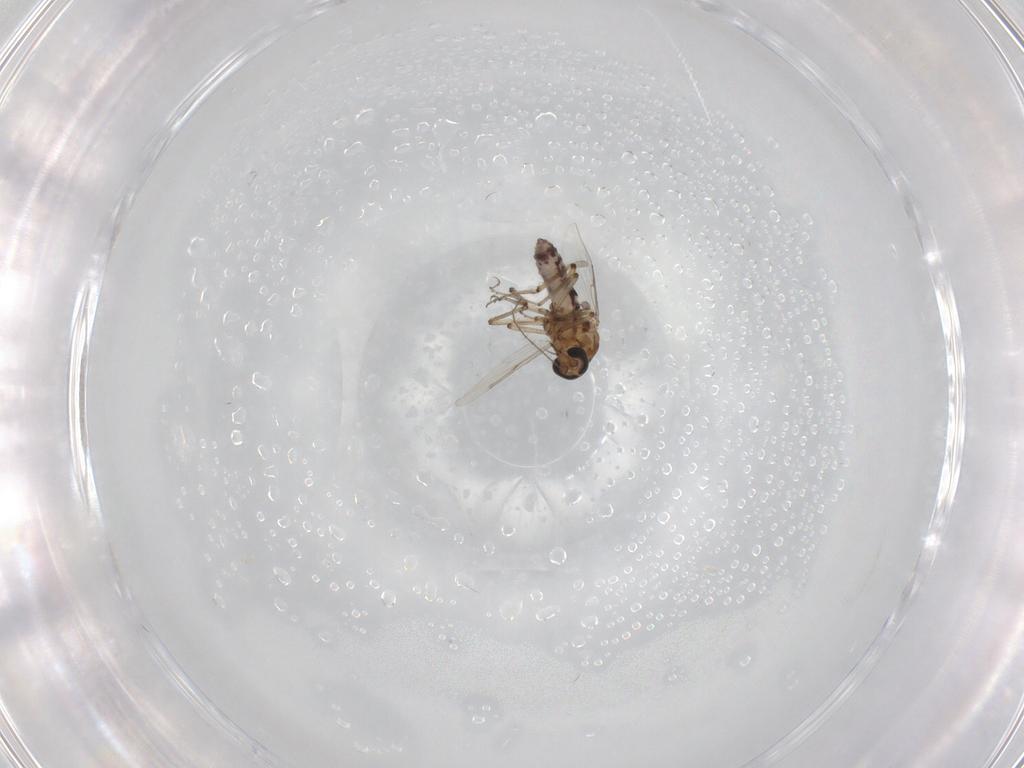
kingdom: Animalia
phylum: Arthropoda
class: Insecta
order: Diptera
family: Ceratopogonidae
